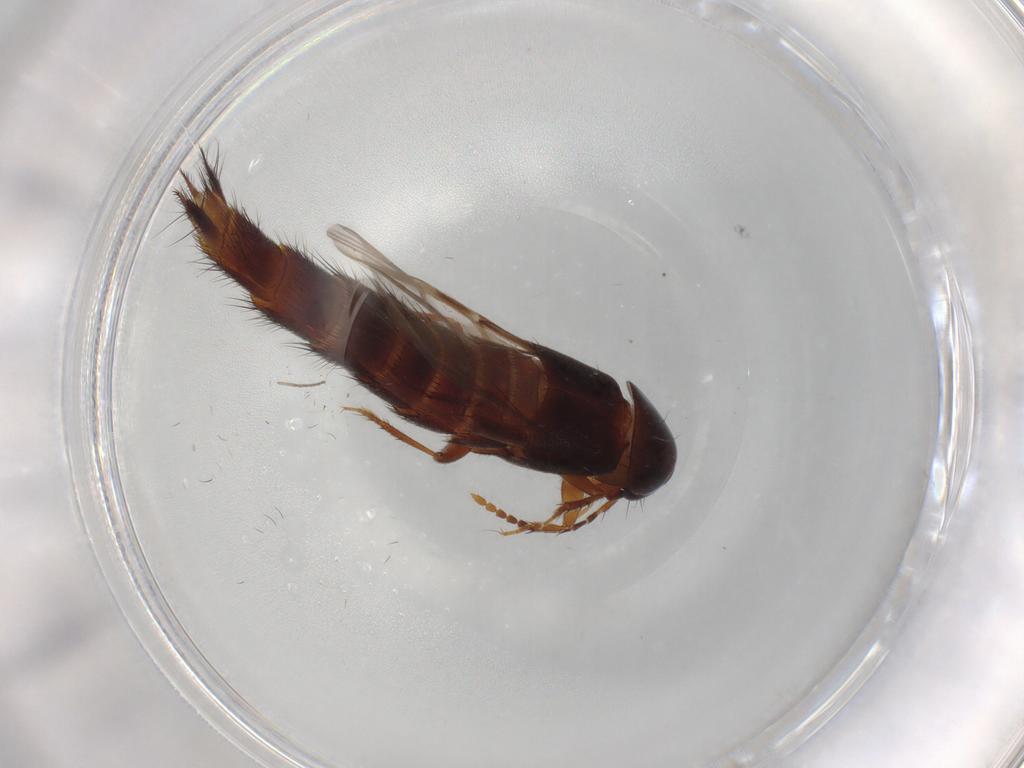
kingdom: Animalia
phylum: Arthropoda
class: Insecta
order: Coleoptera
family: Staphylinidae
